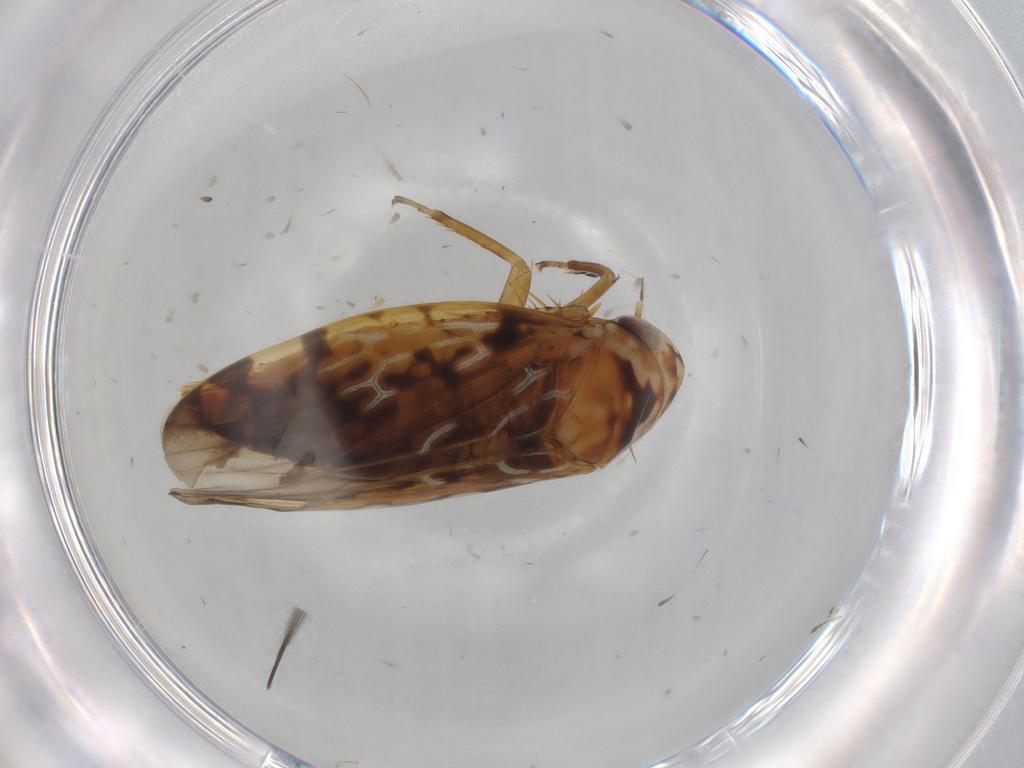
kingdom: Animalia
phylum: Arthropoda
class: Insecta
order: Hemiptera
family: Cicadellidae
